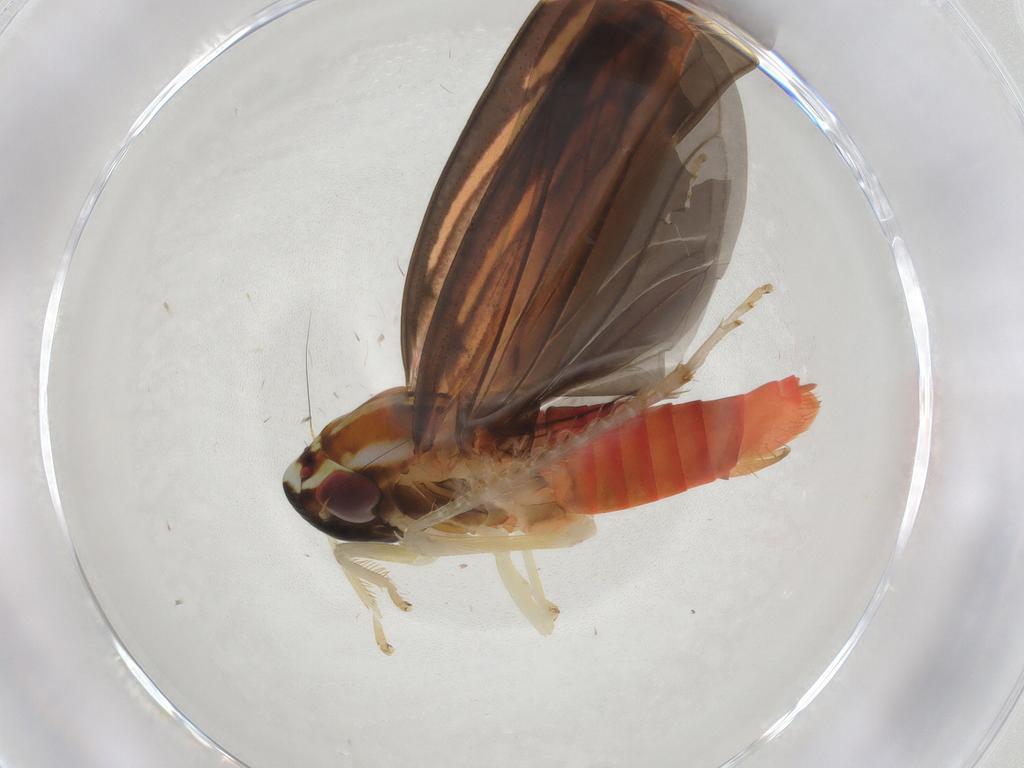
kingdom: Animalia
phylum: Arthropoda
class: Insecta
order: Hemiptera
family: Cicadellidae
